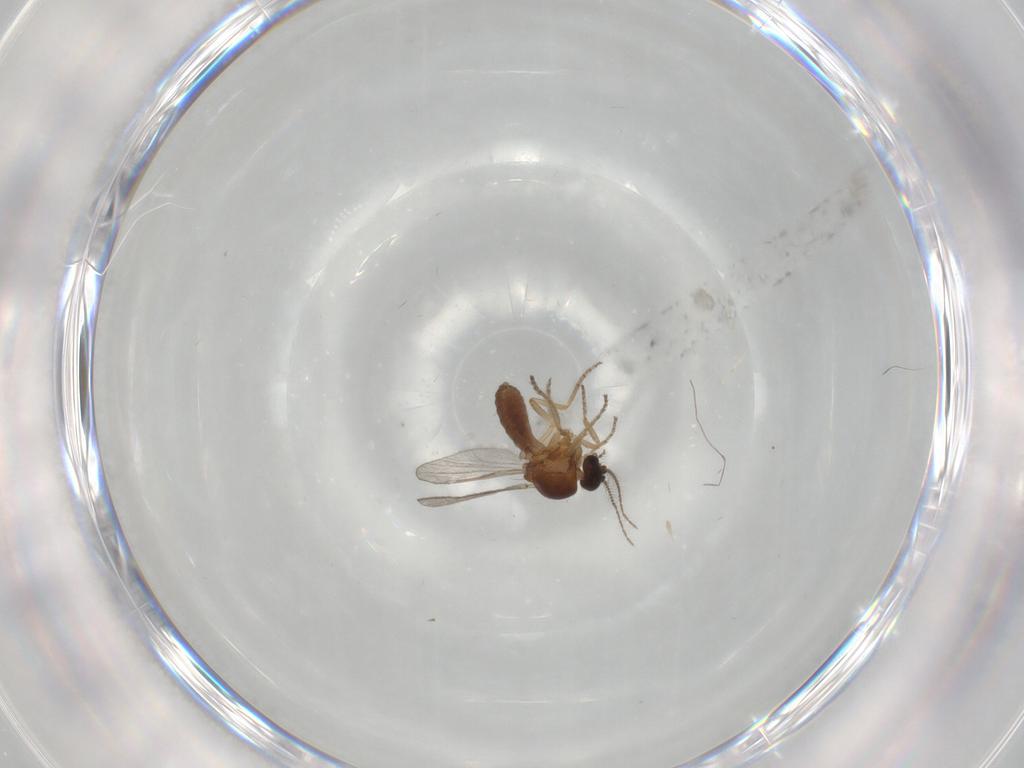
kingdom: Animalia
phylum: Arthropoda
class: Insecta
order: Diptera
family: Ceratopogonidae
